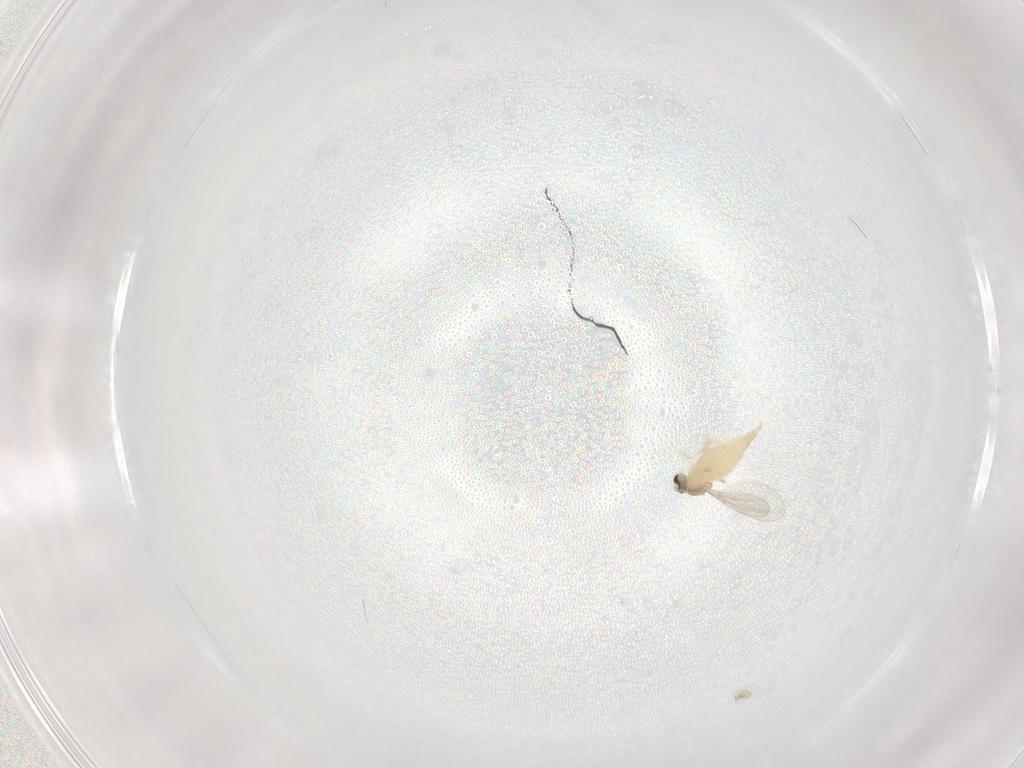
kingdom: Animalia
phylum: Arthropoda
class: Insecta
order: Diptera
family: Cecidomyiidae
